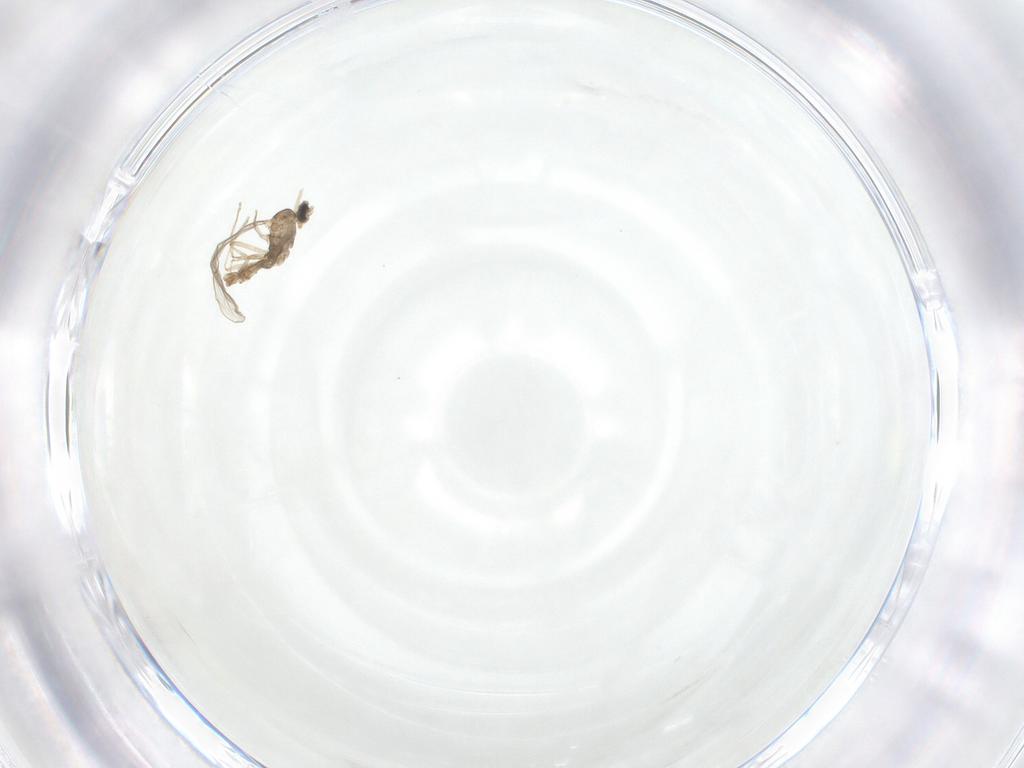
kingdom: Animalia
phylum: Arthropoda
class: Insecta
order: Diptera
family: Cecidomyiidae
